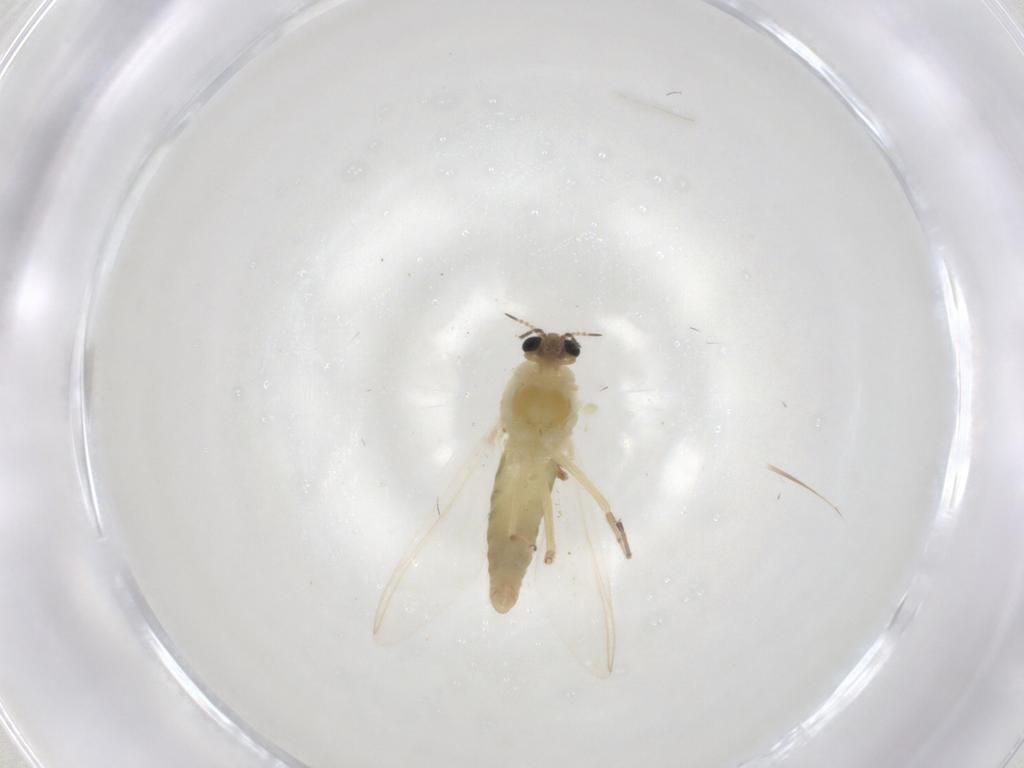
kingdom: Animalia
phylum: Arthropoda
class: Insecta
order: Diptera
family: Chironomidae
